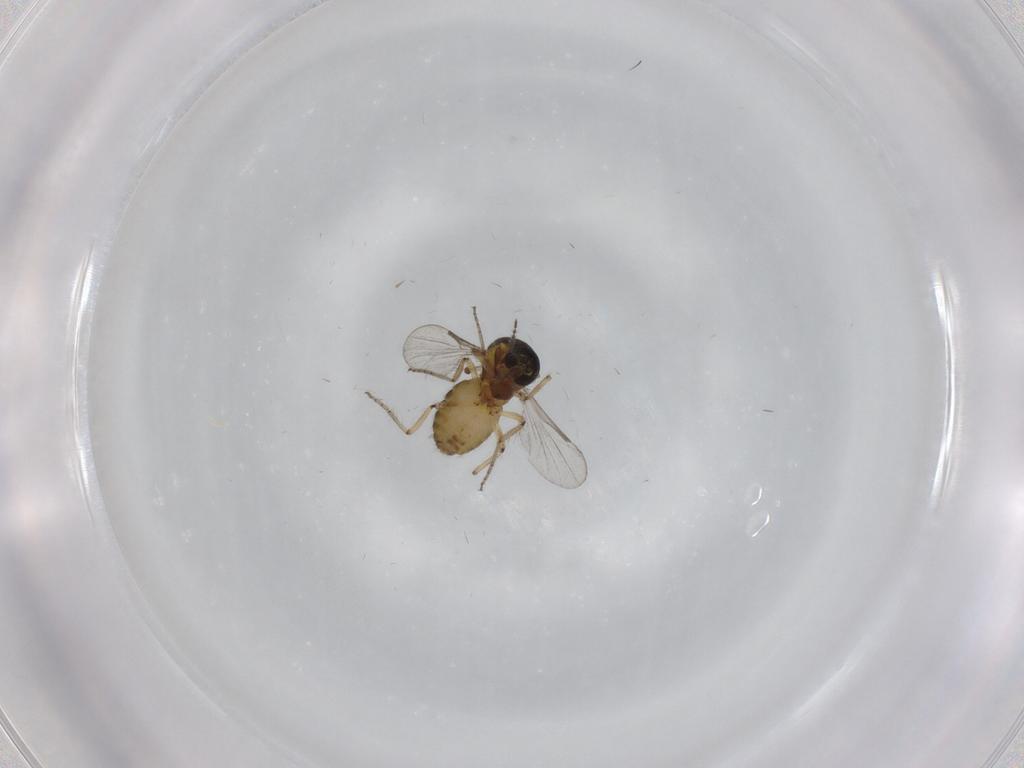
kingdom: Animalia
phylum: Arthropoda
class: Insecta
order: Diptera
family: Ceratopogonidae
